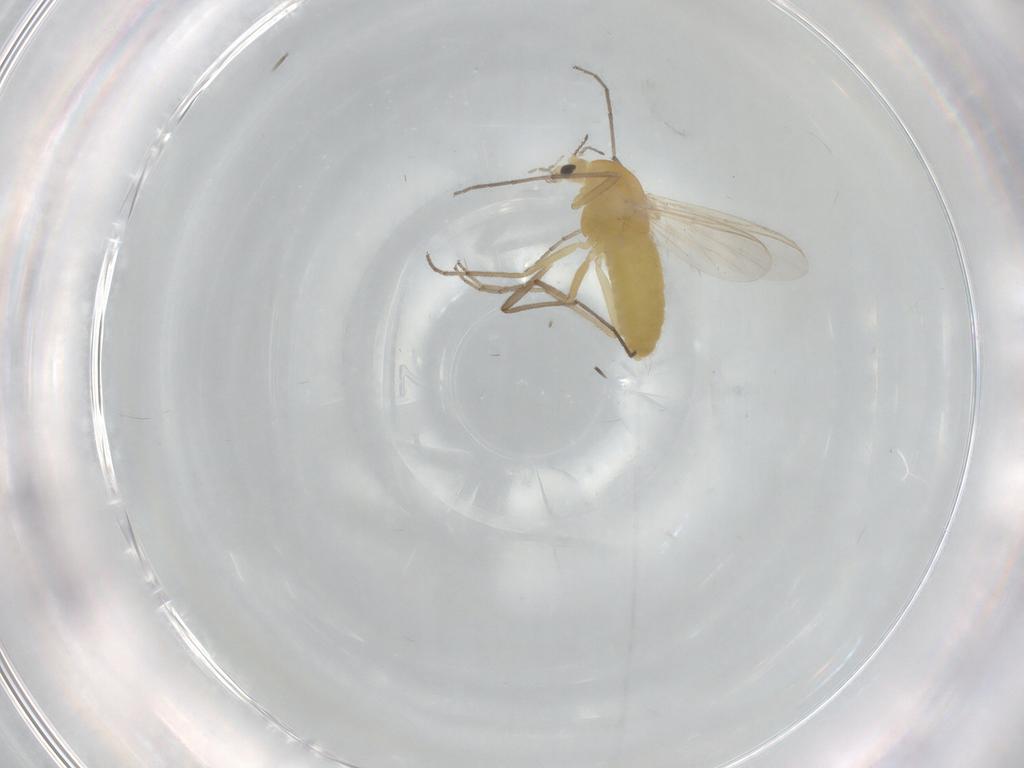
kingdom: Animalia
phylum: Arthropoda
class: Insecta
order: Diptera
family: Chironomidae
